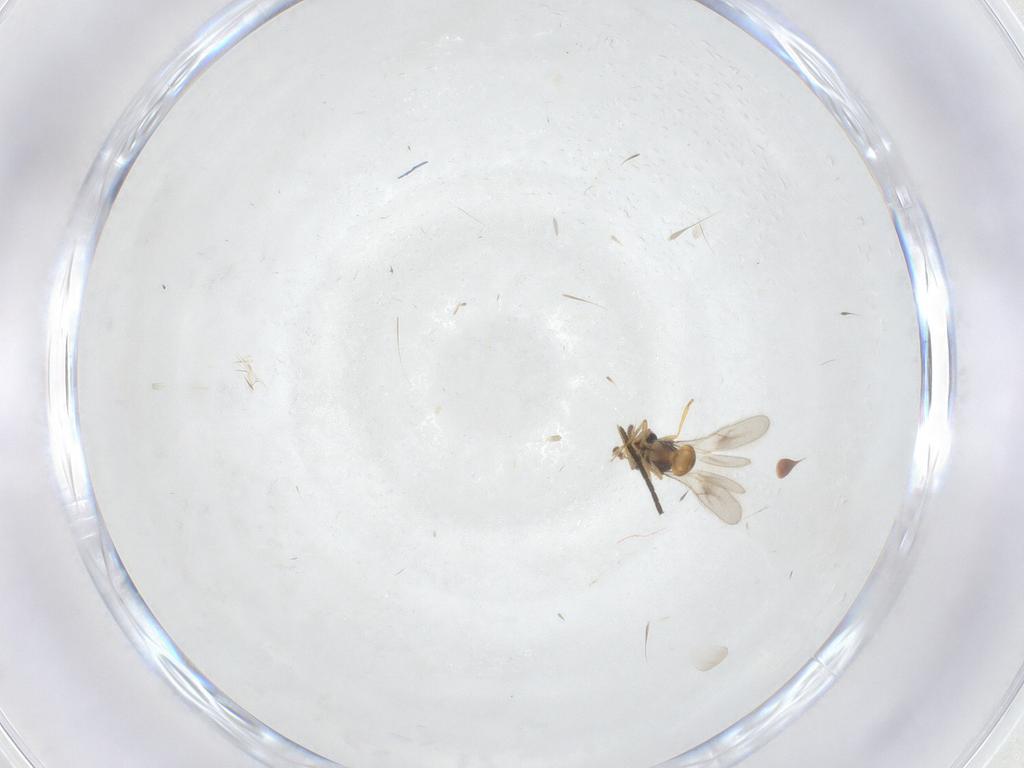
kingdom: Animalia
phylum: Arthropoda
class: Insecta
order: Hymenoptera
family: Scelionidae
